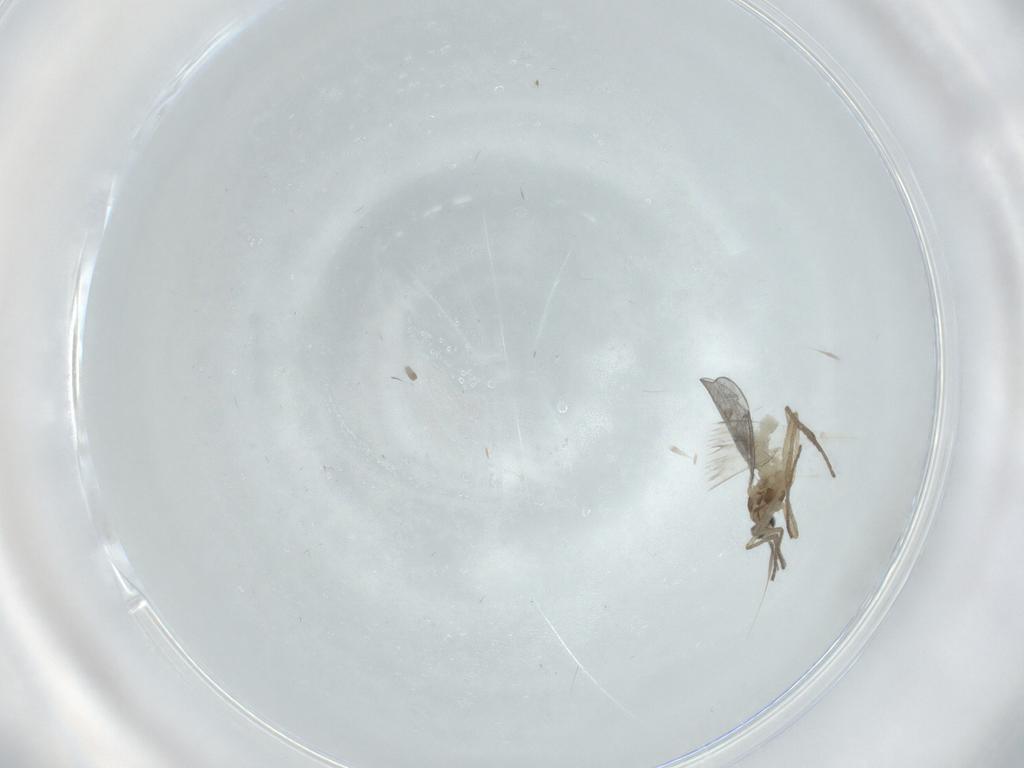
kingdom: Animalia
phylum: Arthropoda
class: Insecta
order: Diptera
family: Cecidomyiidae
